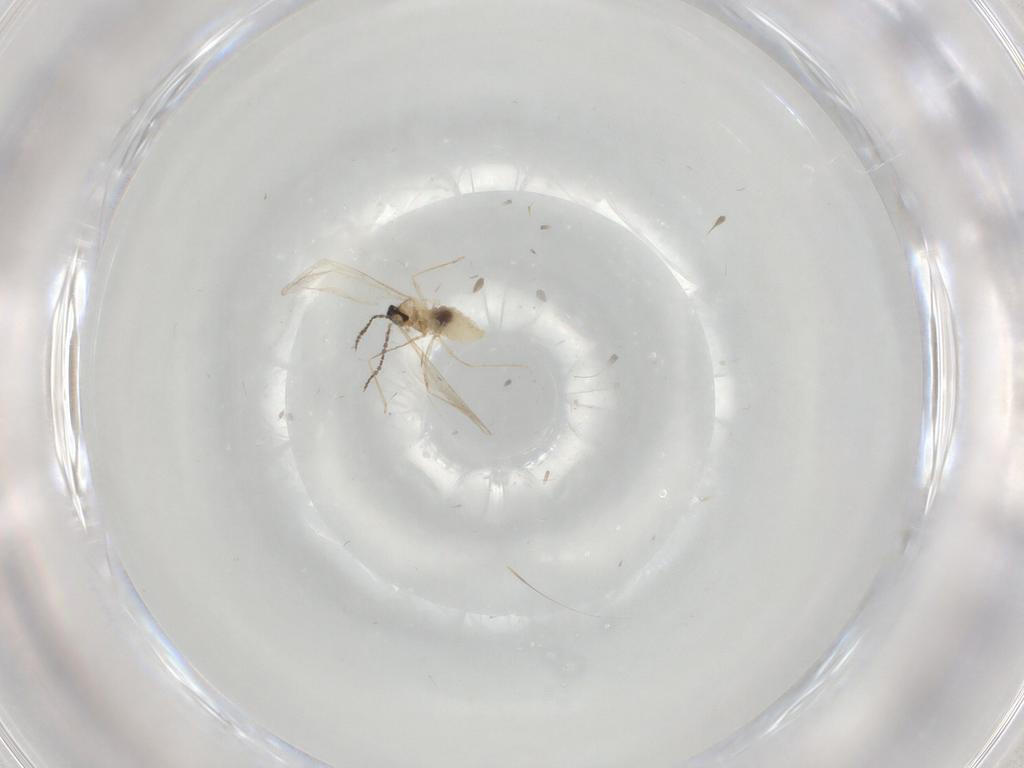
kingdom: Animalia
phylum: Arthropoda
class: Insecta
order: Diptera
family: Cecidomyiidae
